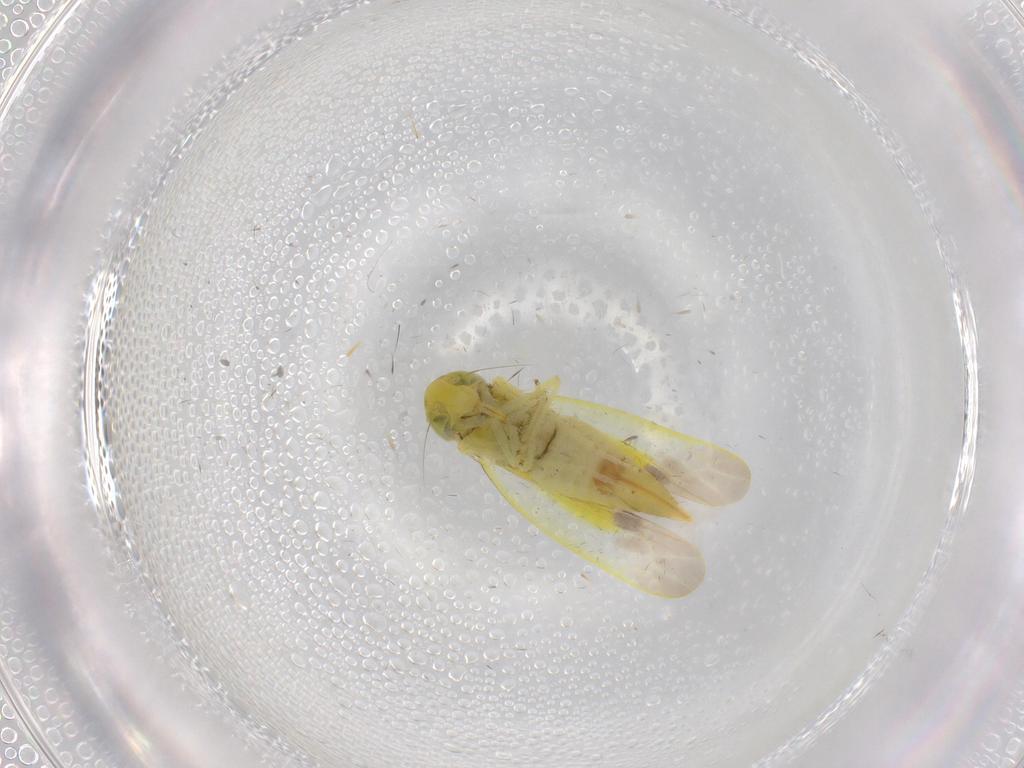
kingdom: Animalia
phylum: Arthropoda
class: Insecta
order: Hemiptera
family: Cicadellidae
